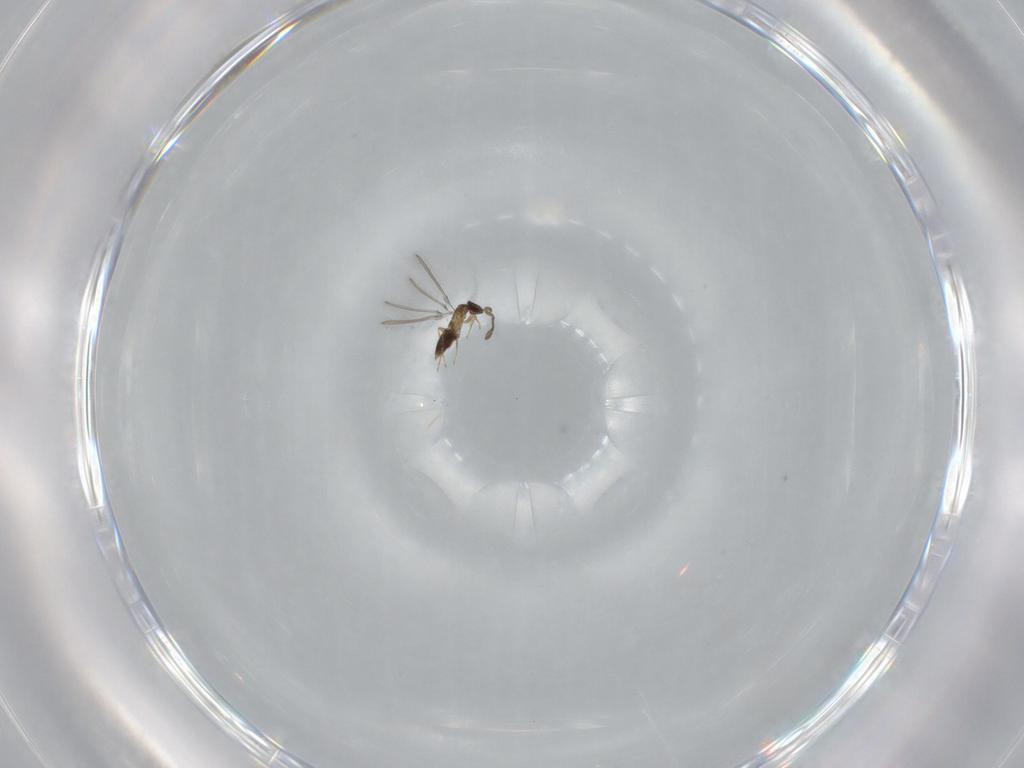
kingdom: Animalia
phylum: Arthropoda
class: Insecta
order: Hymenoptera
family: Mymaridae
